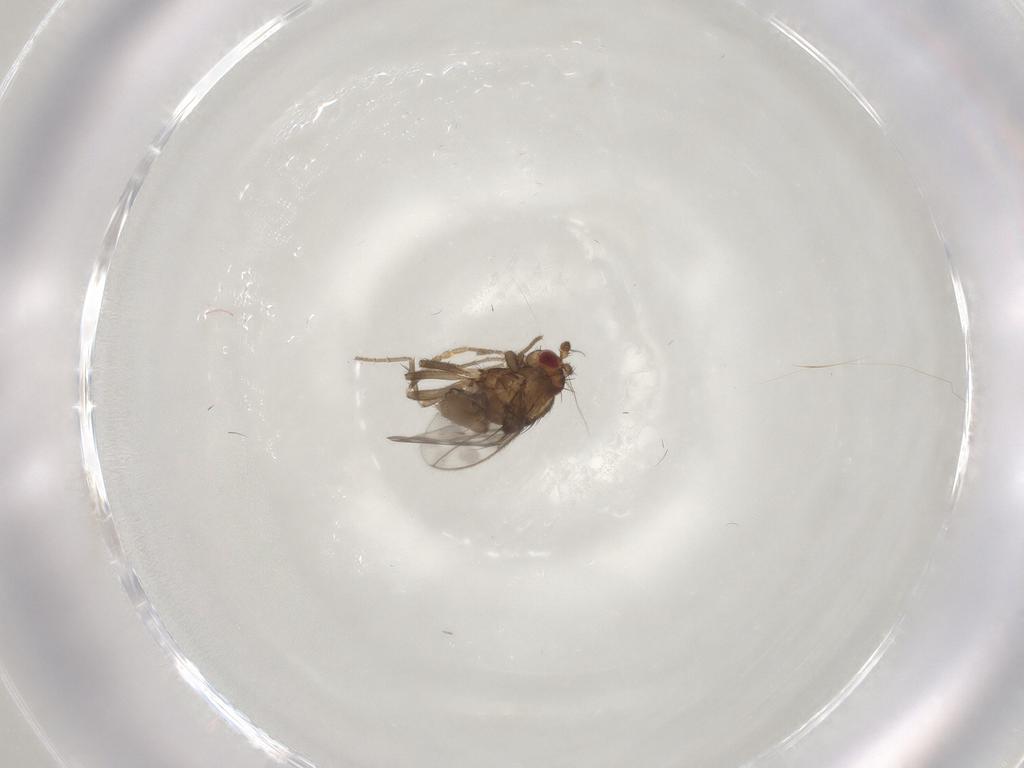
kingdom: Animalia
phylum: Arthropoda
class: Insecta
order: Diptera
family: Sphaeroceridae
